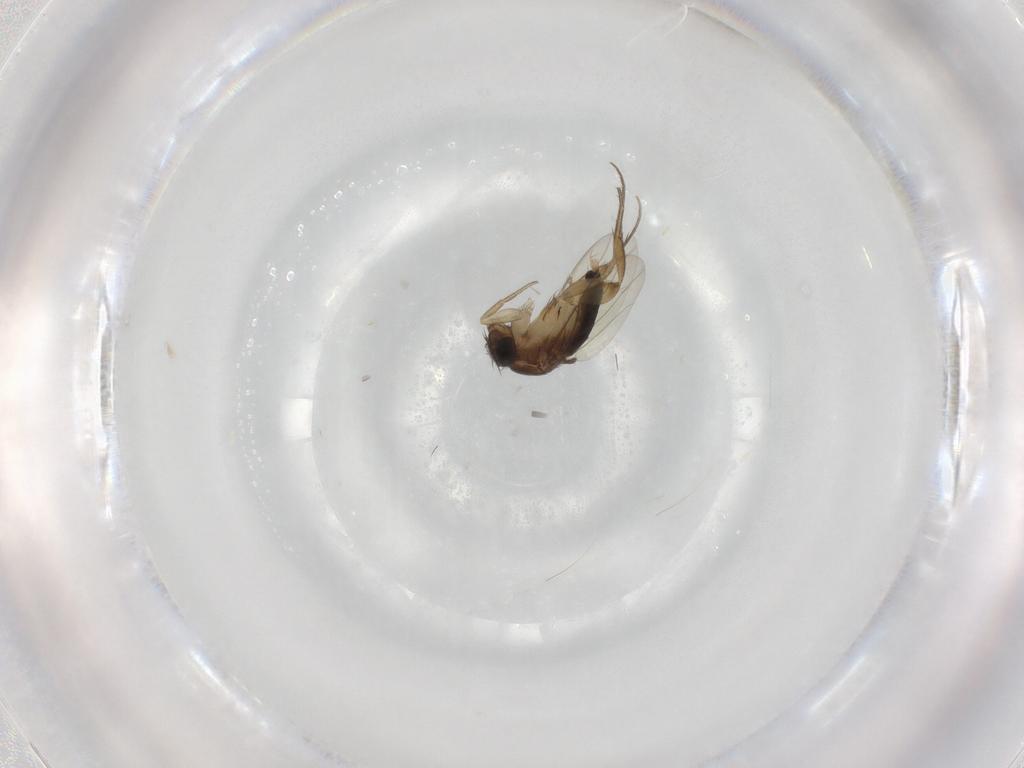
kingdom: Animalia
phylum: Arthropoda
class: Insecta
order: Diptera
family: Phoridae
